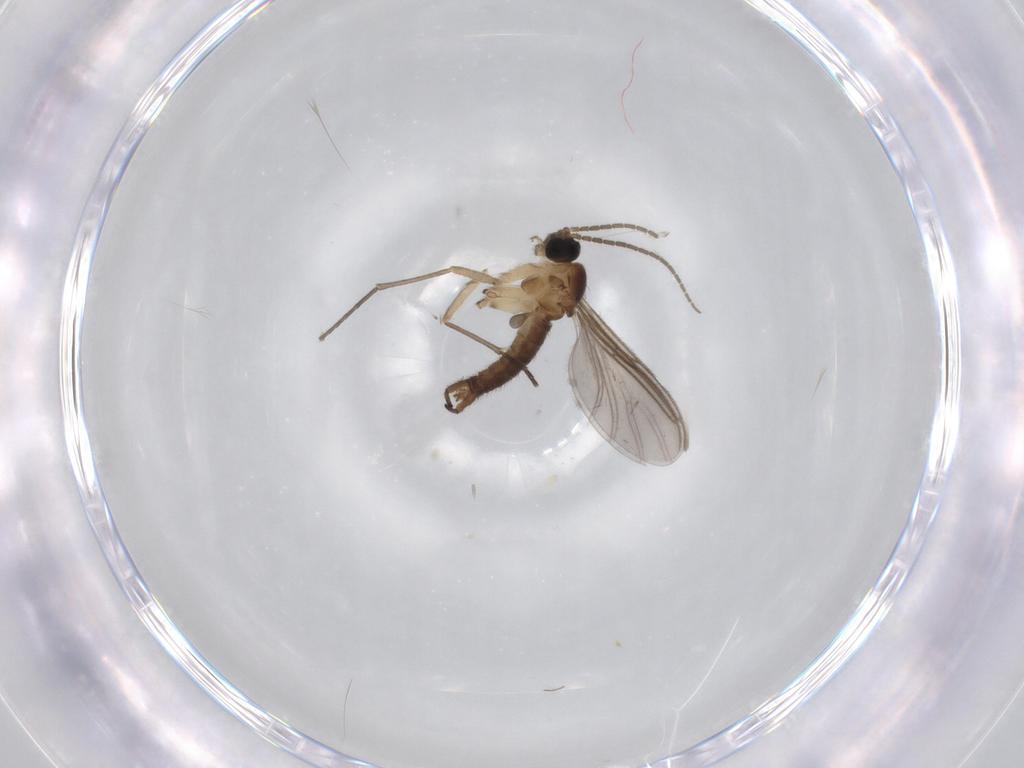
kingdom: Animalia
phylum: Arthropoda
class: Insecta
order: Diptera
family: Sciaridae
